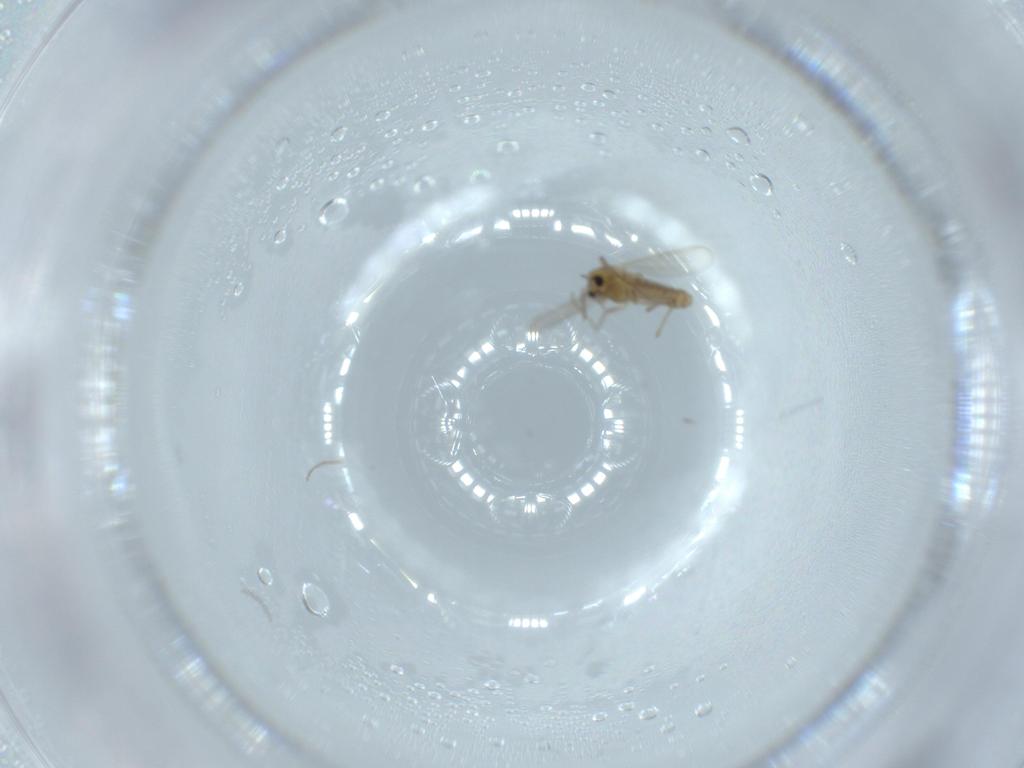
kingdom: Animalia
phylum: Arthropoda
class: Insecta
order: Diptera
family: Chironomidae
